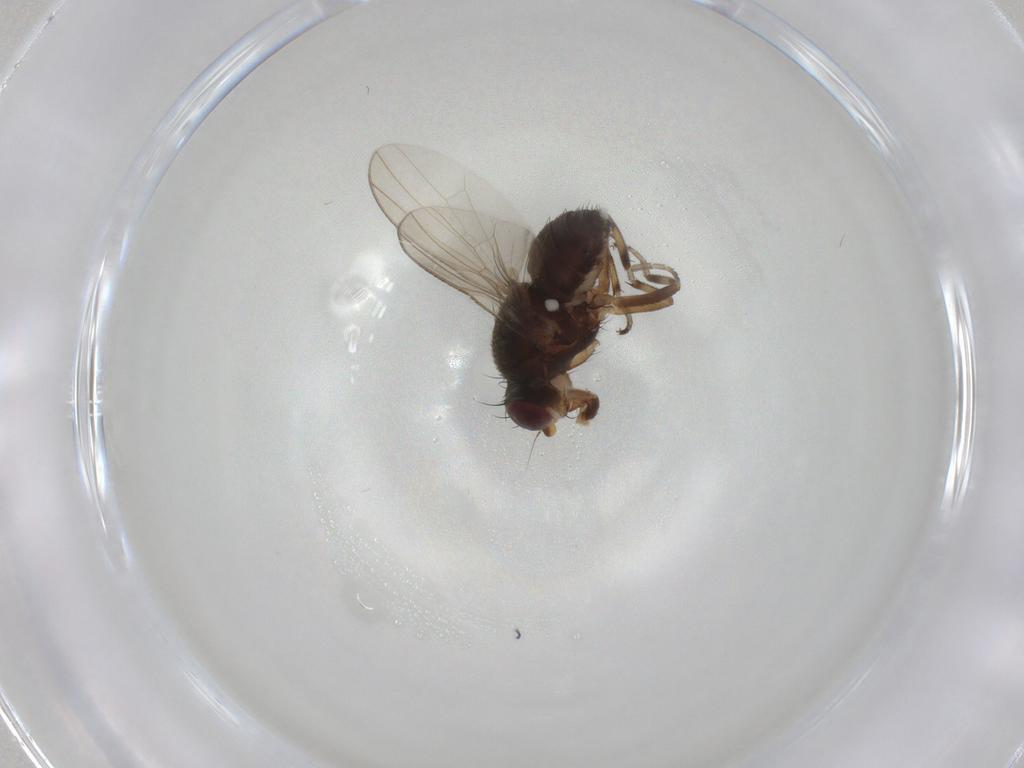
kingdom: Animalia
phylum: Arthropoda
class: Insecta
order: Diptera
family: Heleomyzidae
